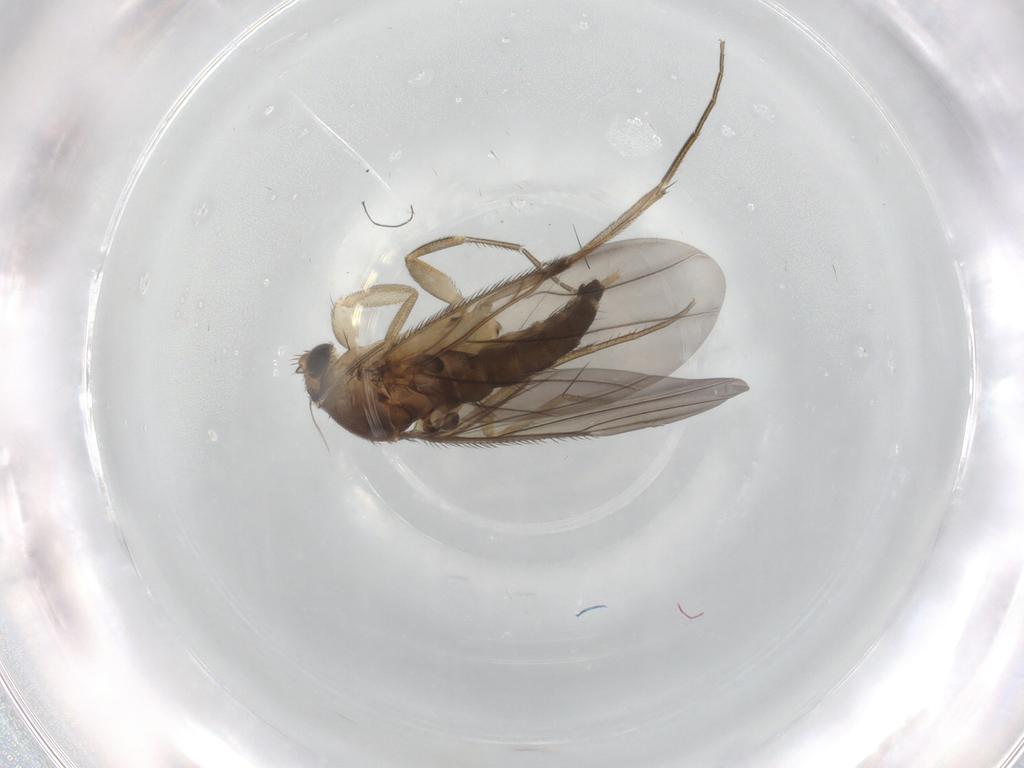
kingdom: Animalia
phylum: Arthropoda
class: Insecta
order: Diptera
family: Phoridae
